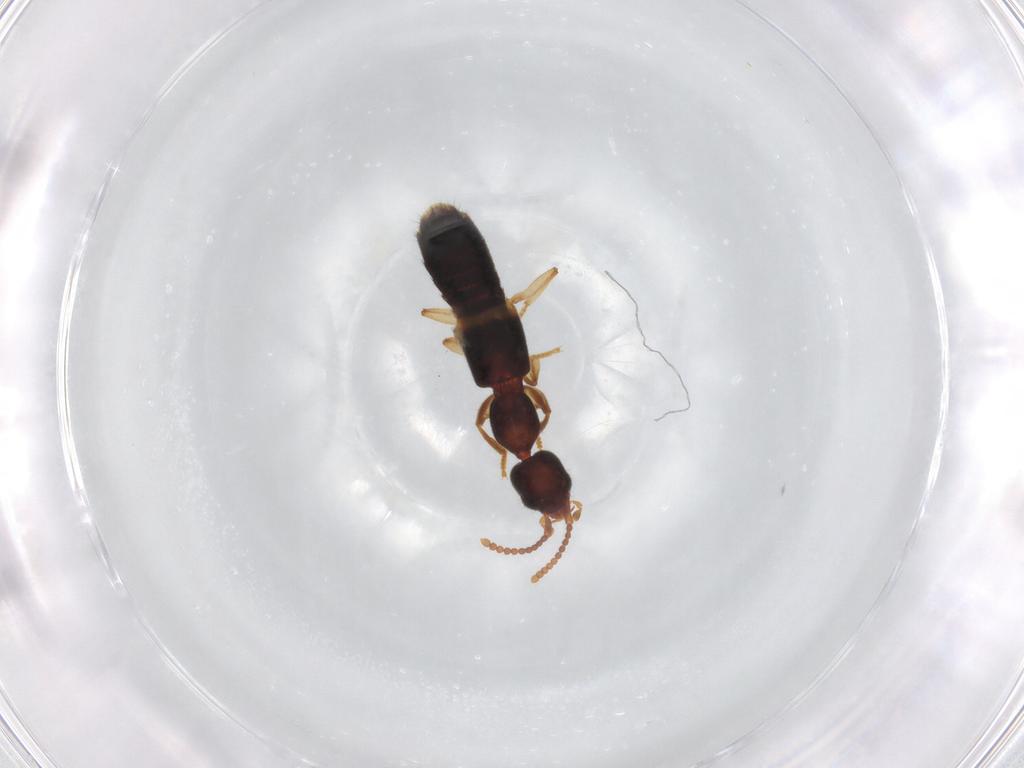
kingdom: Animalia
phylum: Arthropoda
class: Insecta
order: Coleoptera
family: Staphylinidae
